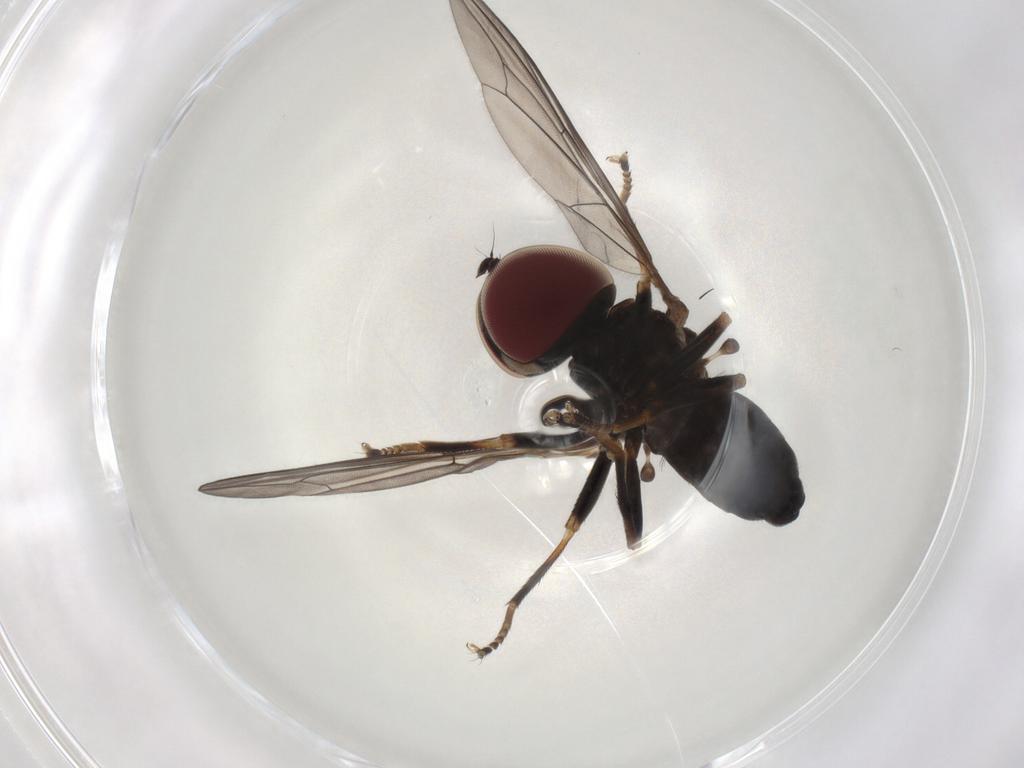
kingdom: Animalia
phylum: Arthropoda
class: Insecta
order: Diptera
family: Pipunculidae
